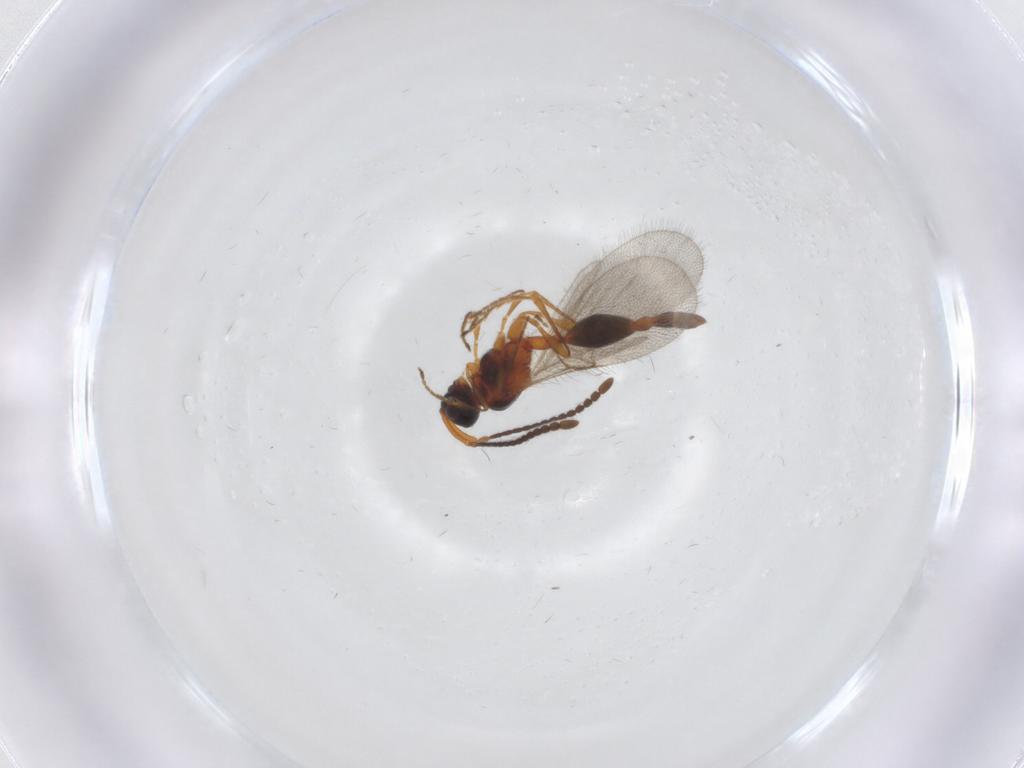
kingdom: Animalia
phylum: Arthropoda
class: Insecta
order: Hymenoptera
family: Diapriidae
